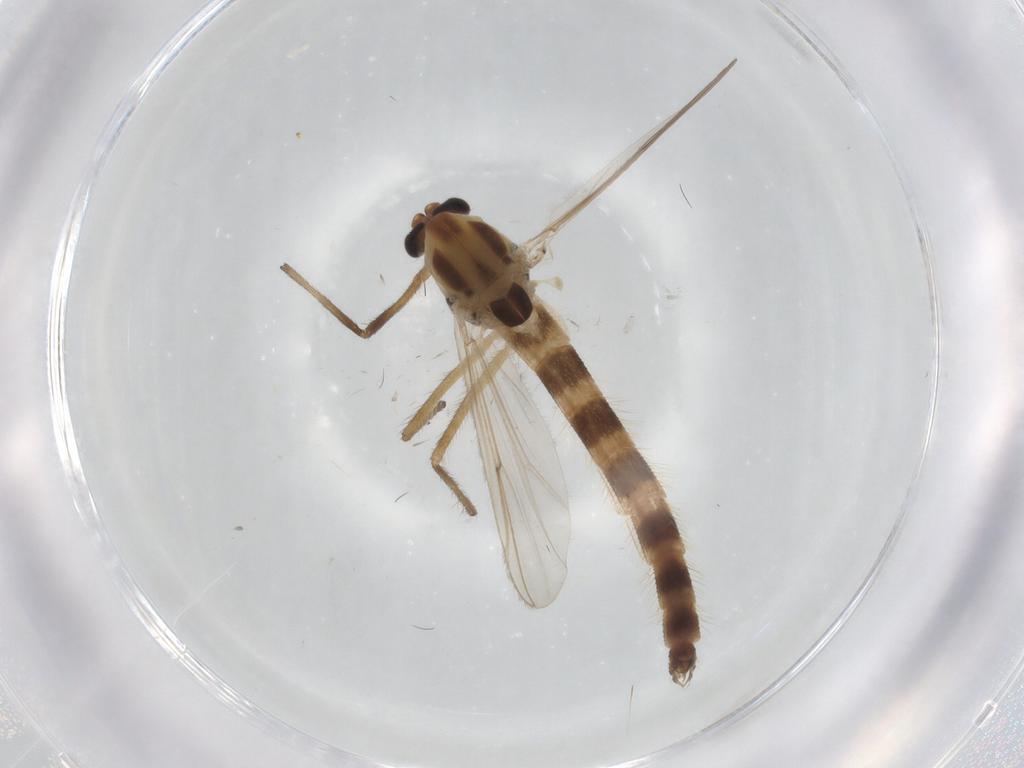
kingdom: Animalia
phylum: Arthropoda
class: Insecta
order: Diptera
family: Chironomidae
